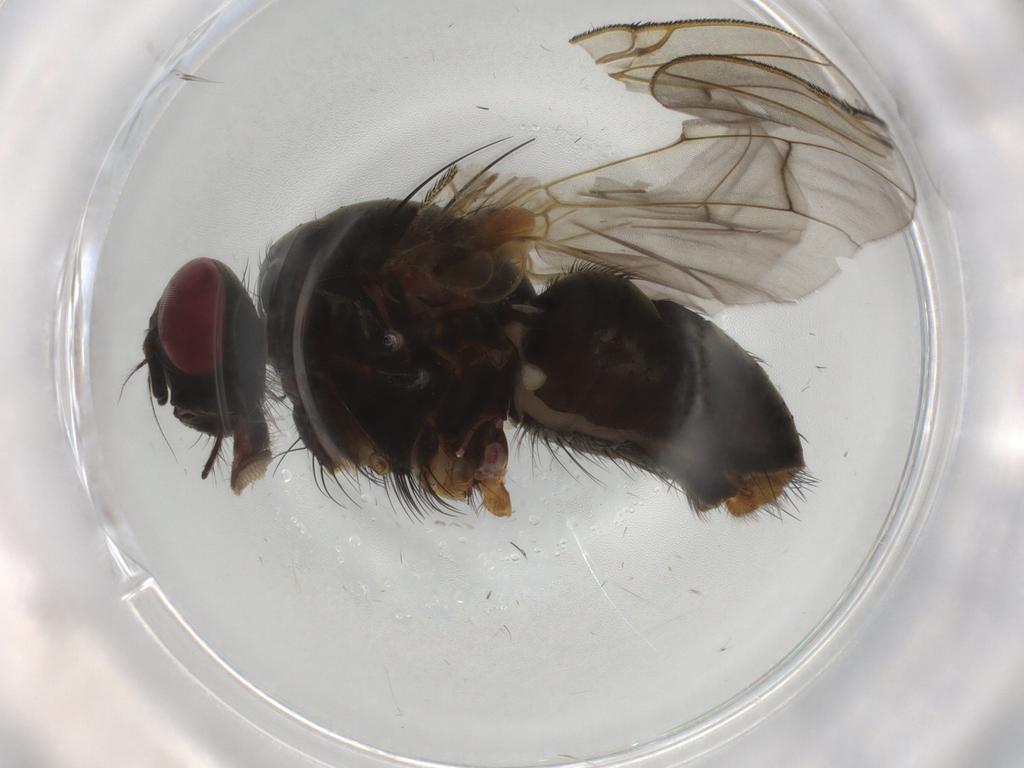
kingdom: Animalia
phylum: Arthropoda
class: Insecta
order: Diptera
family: Muscidae
